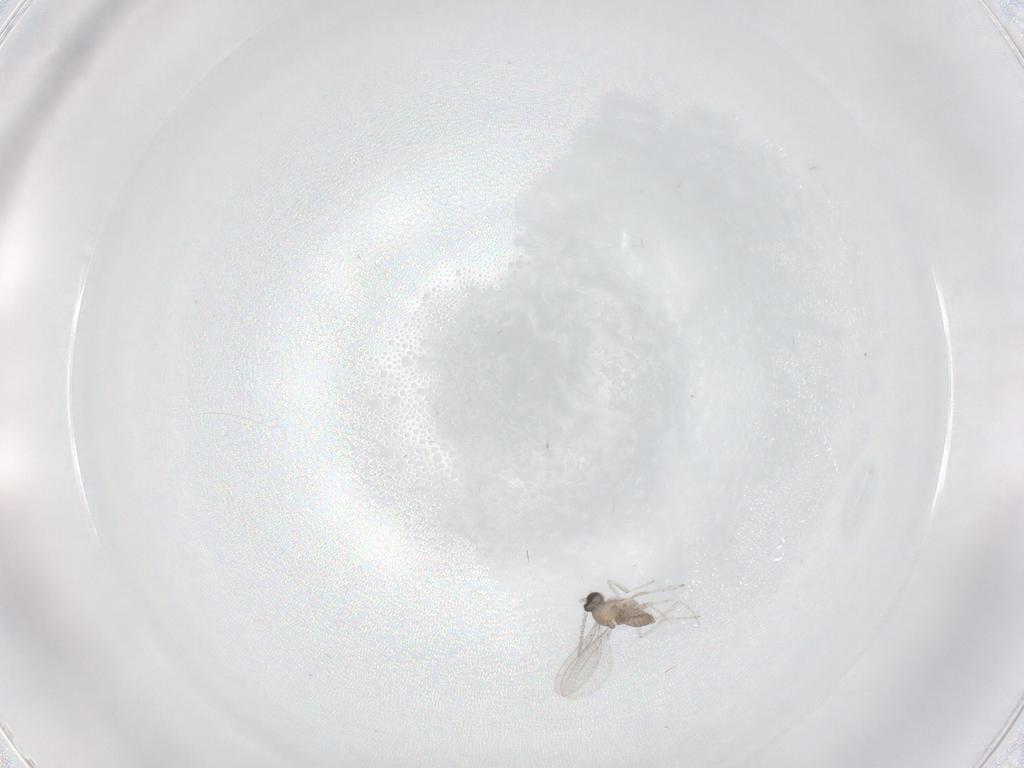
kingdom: Animalia
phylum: Arthropoda
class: Insecta
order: Diptera
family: Cecidomyiidae
